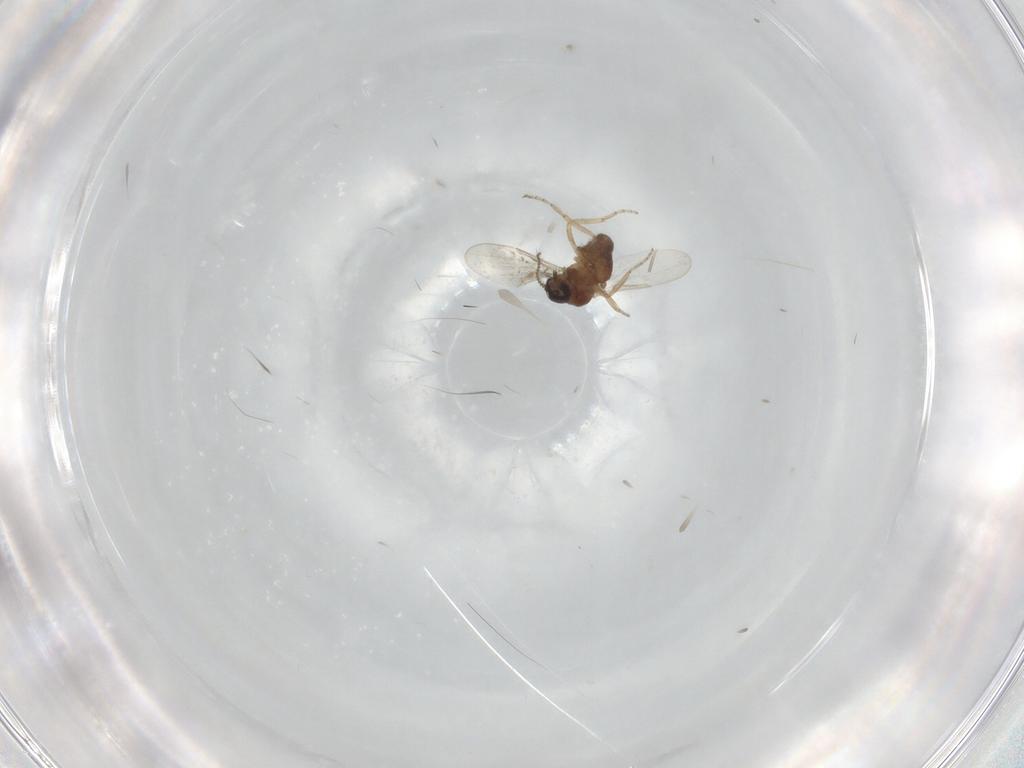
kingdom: Animalia
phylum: Arthropoda
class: Insecta
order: Diptera
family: Ceratopogonidae
